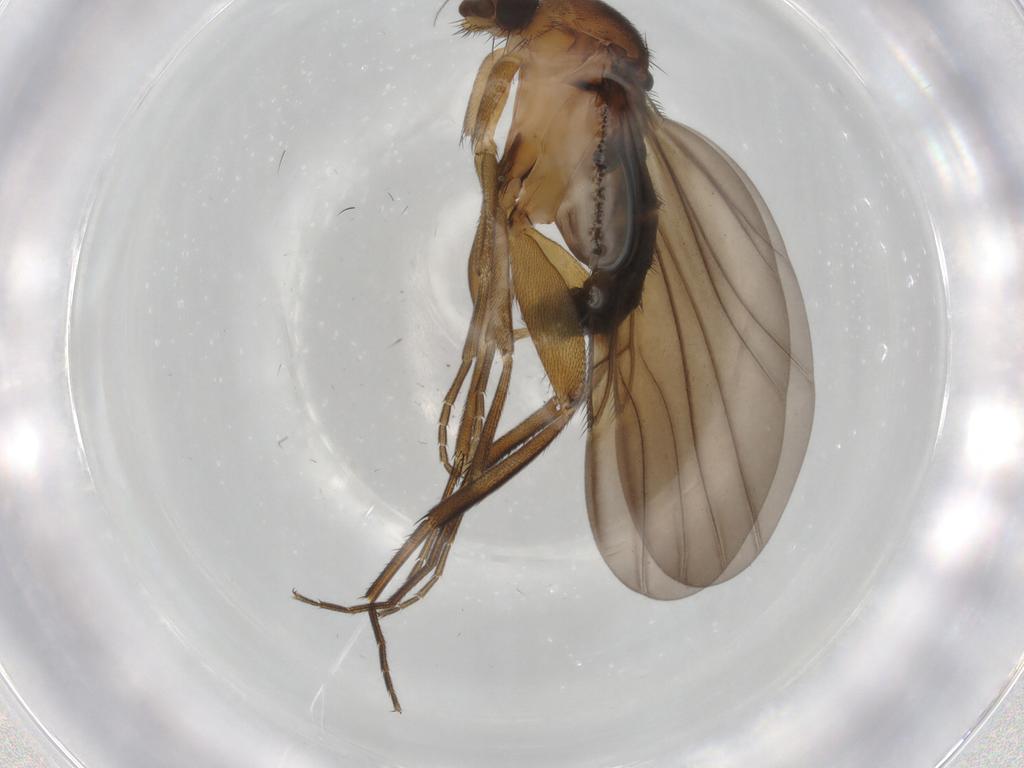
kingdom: Animalia
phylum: Arthropoda
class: Insecta
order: Diptera
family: Phoridae
